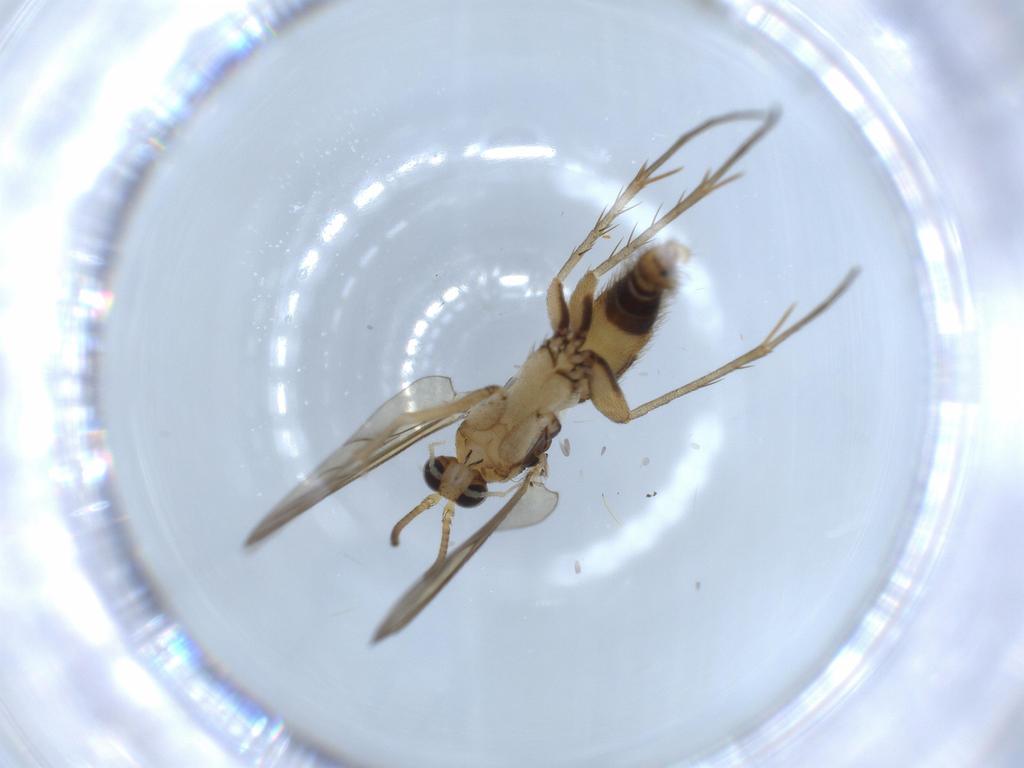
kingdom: Animalia
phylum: Arthropoda
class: Insecta
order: Diptera
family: Mycetophilidae
